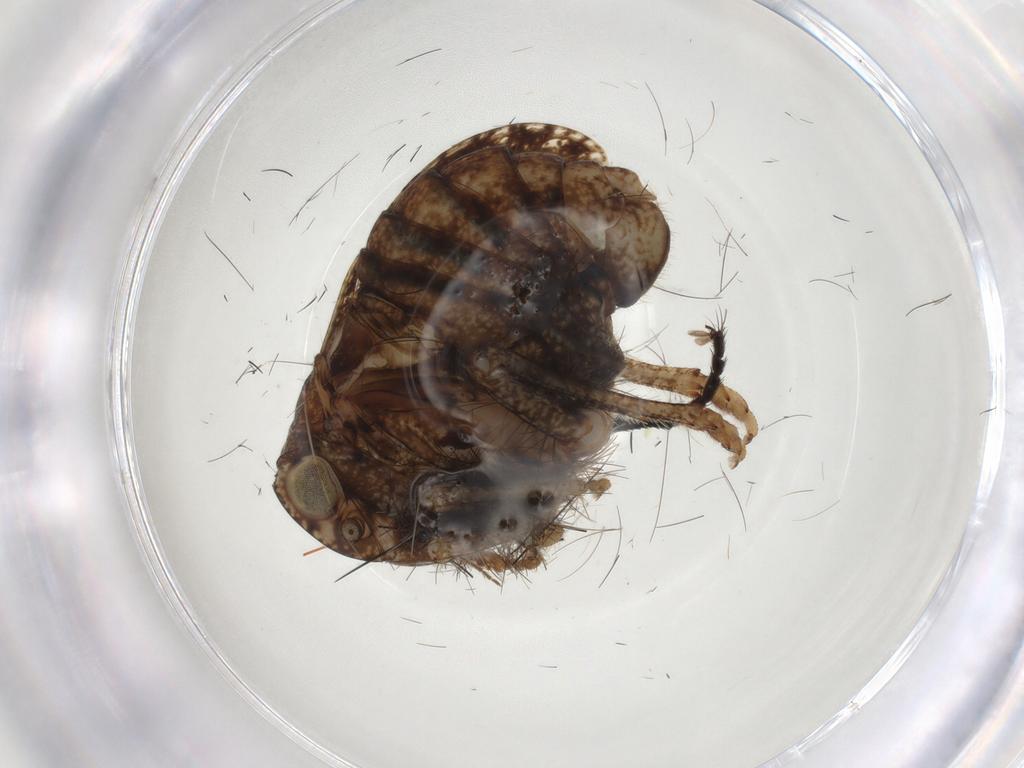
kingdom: Animalia
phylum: Arthropoda
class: Insecta
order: Hemiptera
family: Tropiduchidae
